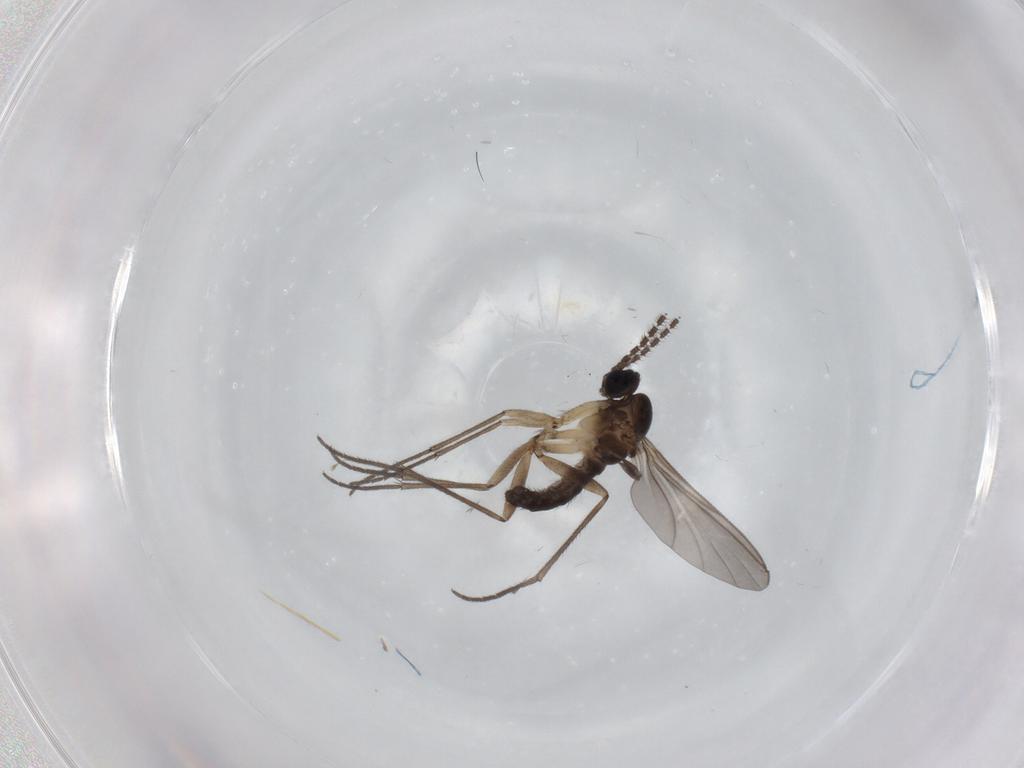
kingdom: Animalia
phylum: Arthropoda
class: Insecta
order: Diptera
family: Sciaridae
